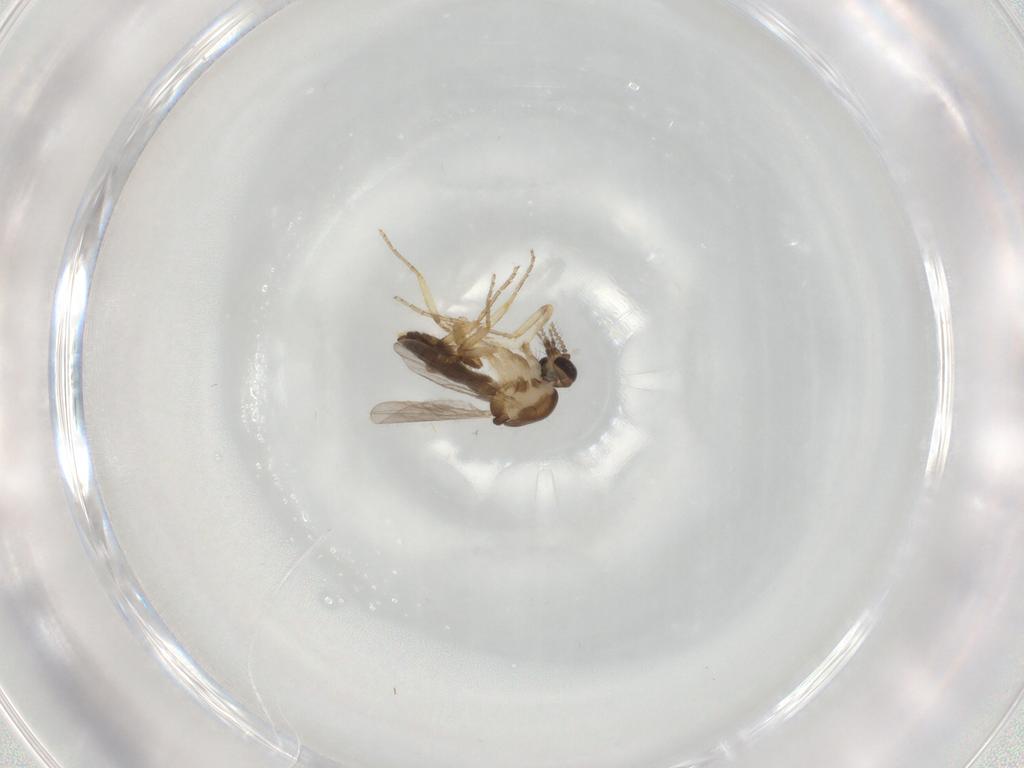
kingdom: Animalia
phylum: Arthropoda
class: Insecta
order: Diptera
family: Ceratopogonidae
